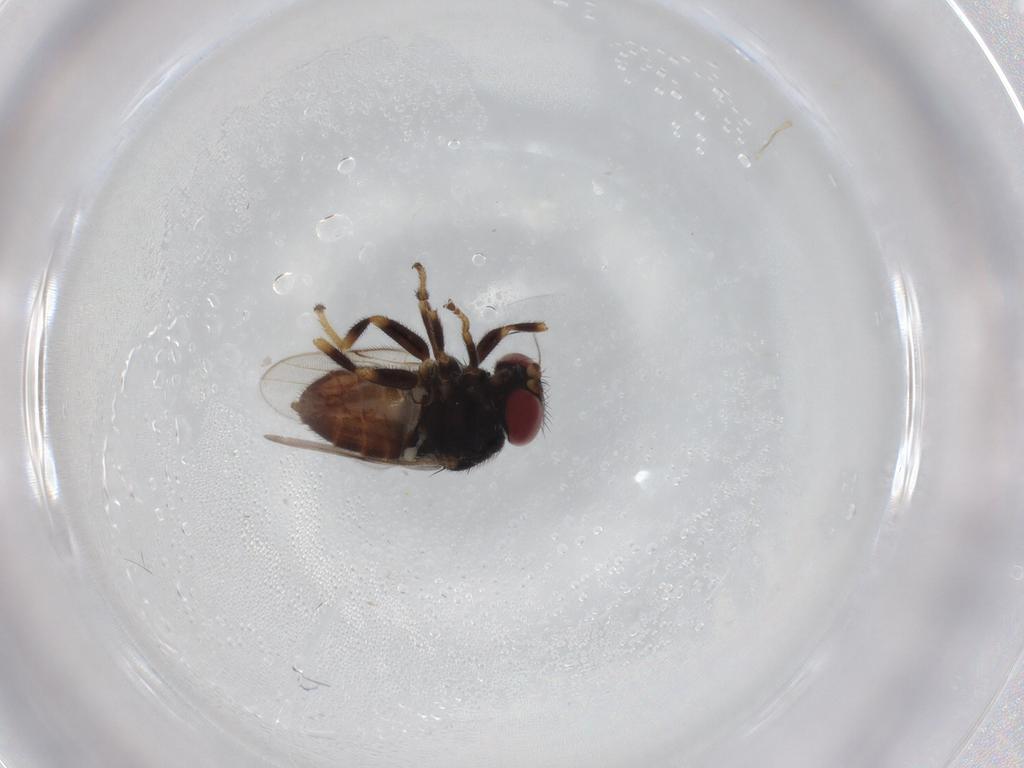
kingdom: Animalia
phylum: Arthropoda
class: Insecta
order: Diptera
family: Chloropidae
